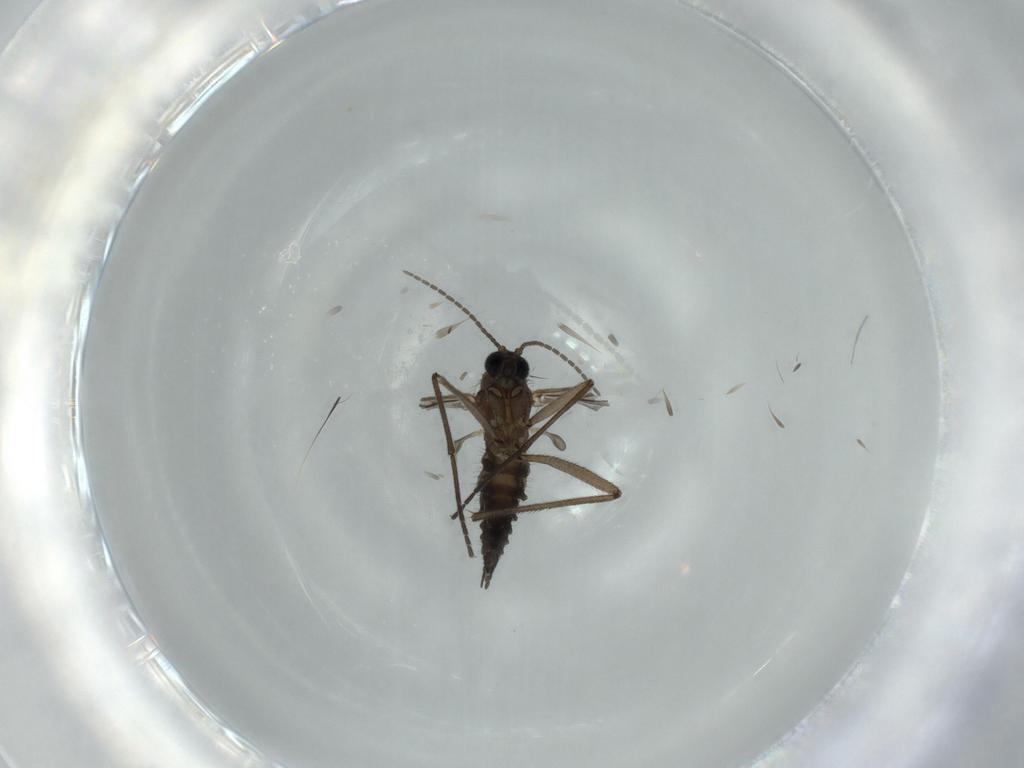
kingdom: Animalia
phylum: Arthropoda
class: Insecta
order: Diptera
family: Sciaridae
